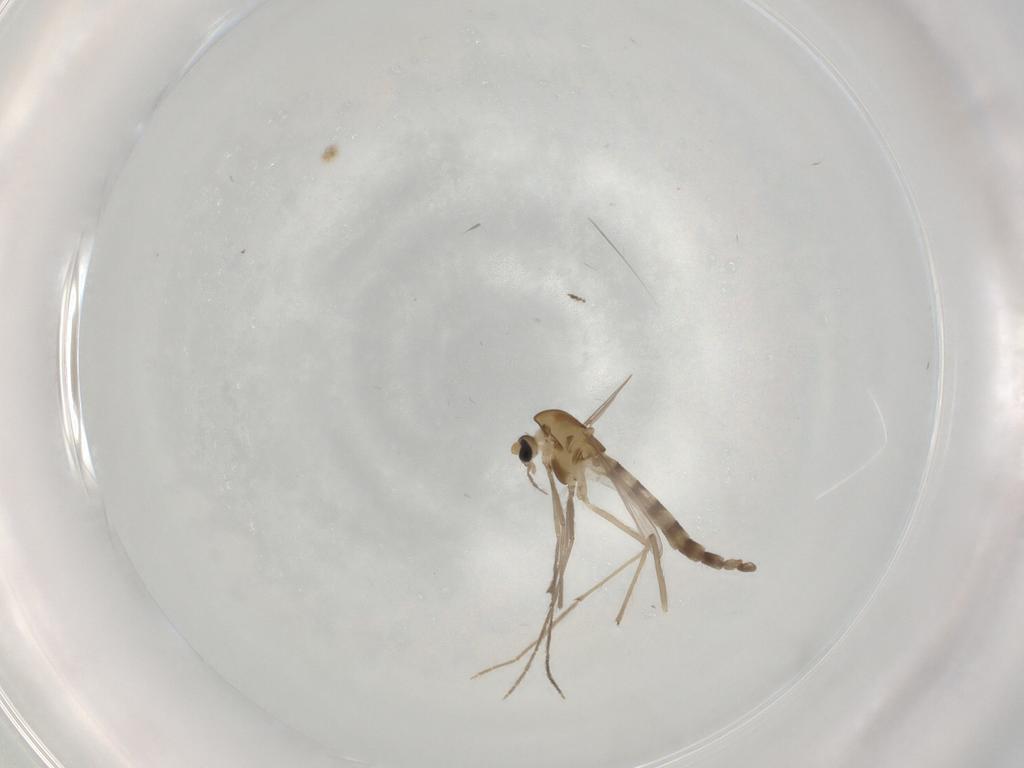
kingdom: Animalia
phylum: Arthropoda
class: Insecta
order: Diptera
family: Phoridae
